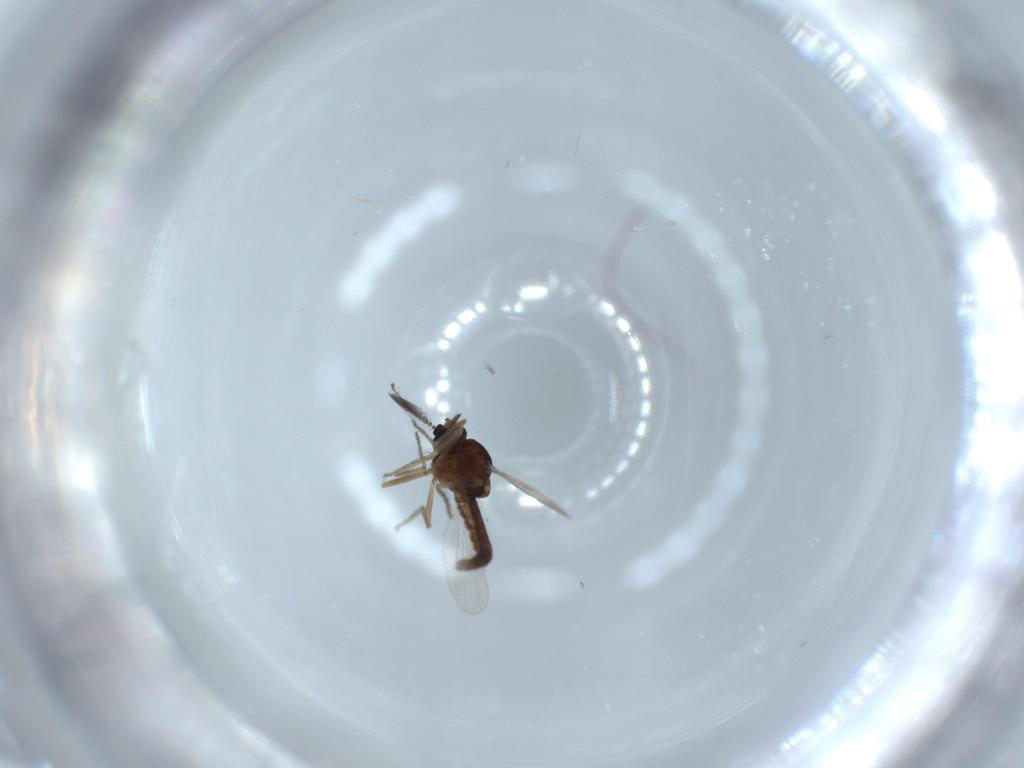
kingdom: Animalia
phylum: Arthropoda
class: Insecta
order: Diptera
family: Ceratopogonidae
